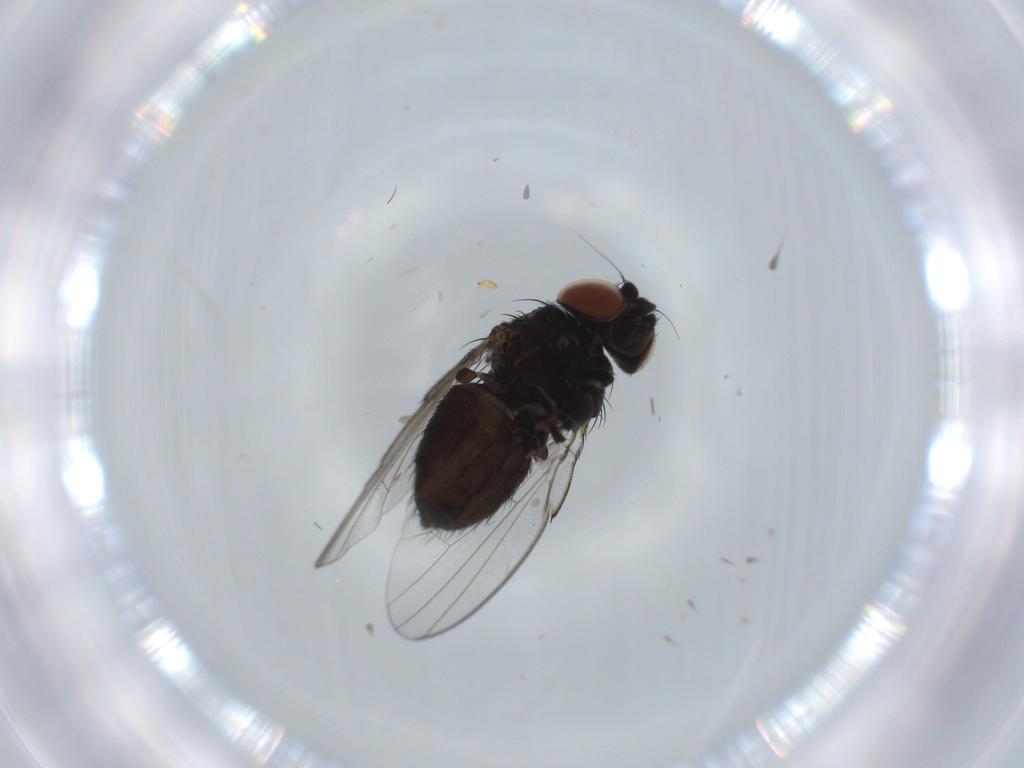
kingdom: Animalia
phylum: Arthropoda
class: Insecta
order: Diptera
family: Milichiidae
